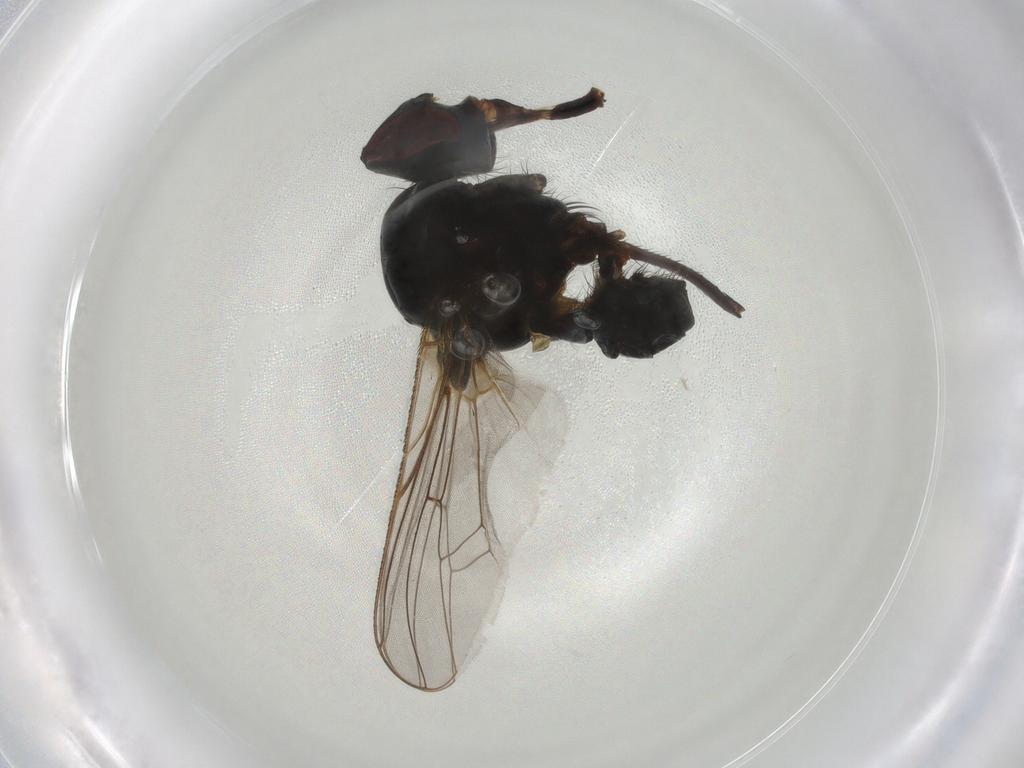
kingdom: Animalia
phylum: Arthropoda
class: Insecta
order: Diptera
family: Anthomyiidae
